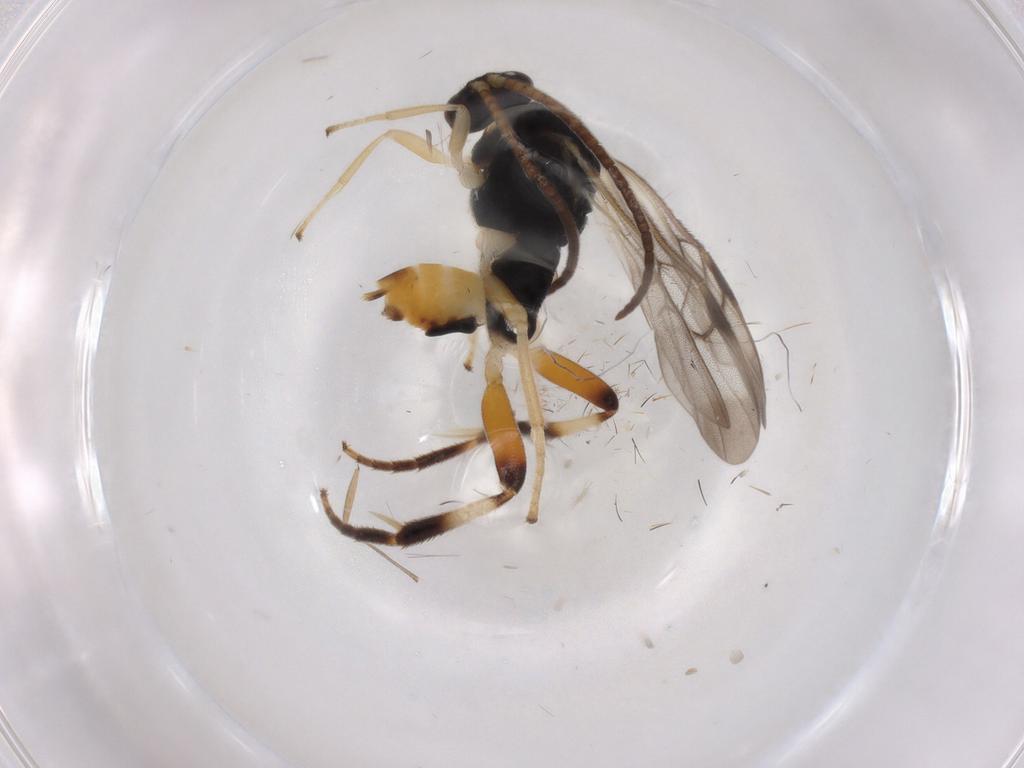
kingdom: Animalia
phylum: Arthropoda
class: Insecta
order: Hymenoptera
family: Braconidae
